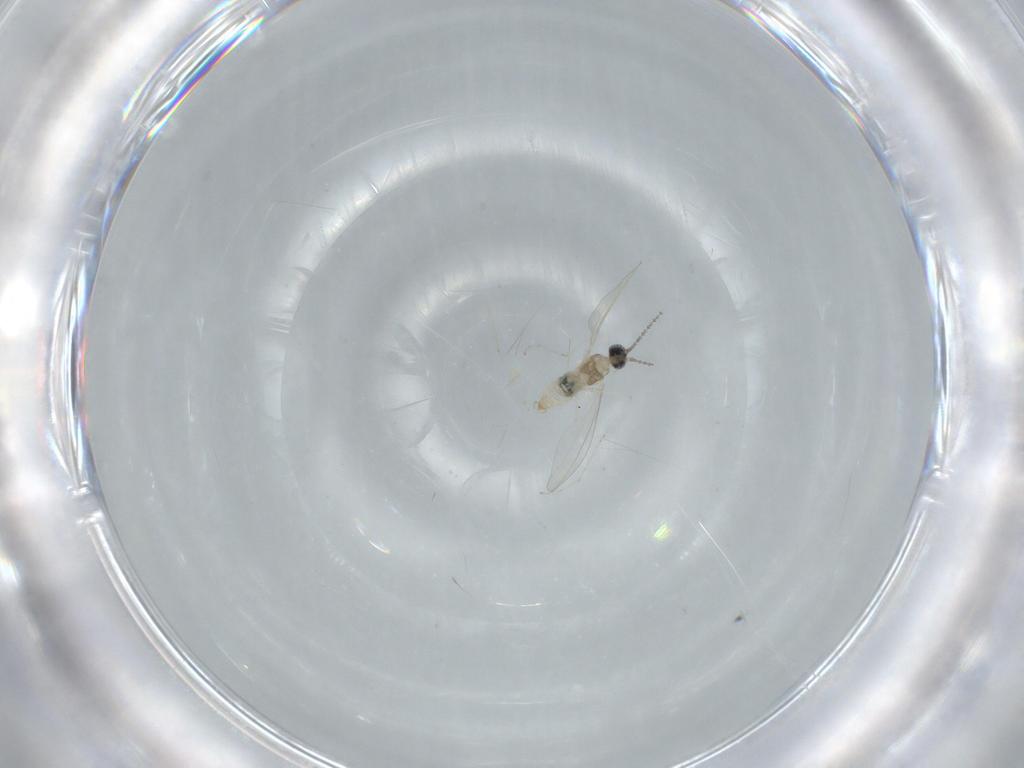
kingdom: Animalia
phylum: Arthropoda
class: Insecta
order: Diptera
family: Cecidomyiidae
